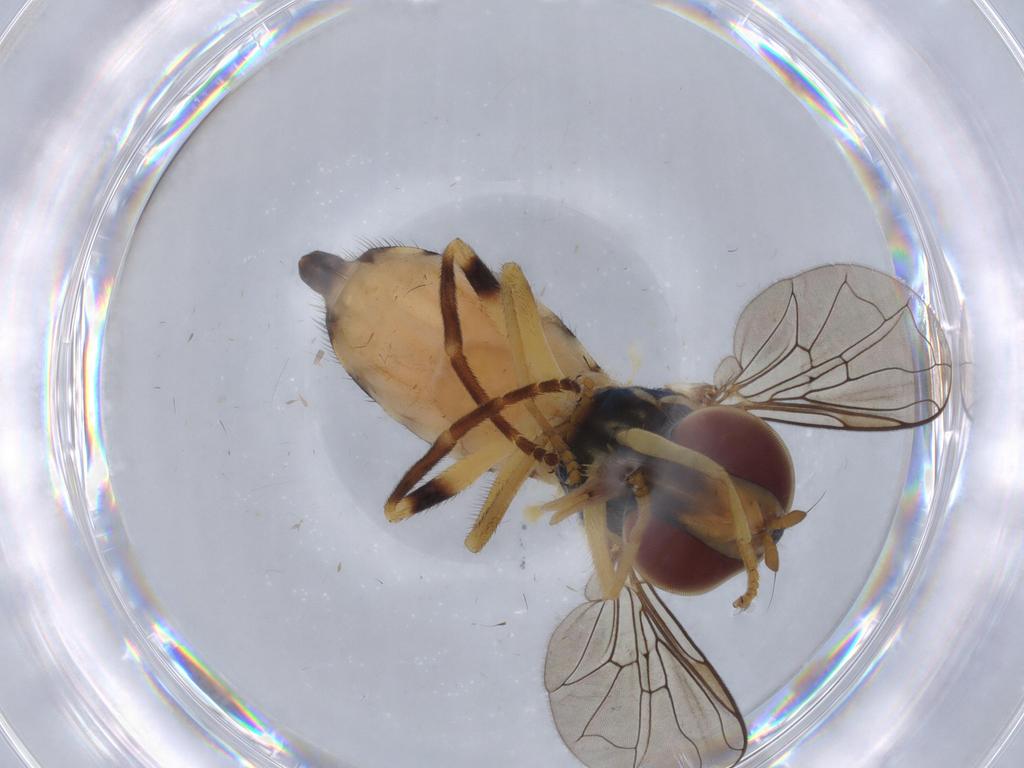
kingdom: Animalia
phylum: Arthropoda
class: Insecta
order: Diptera
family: Syrphidae
